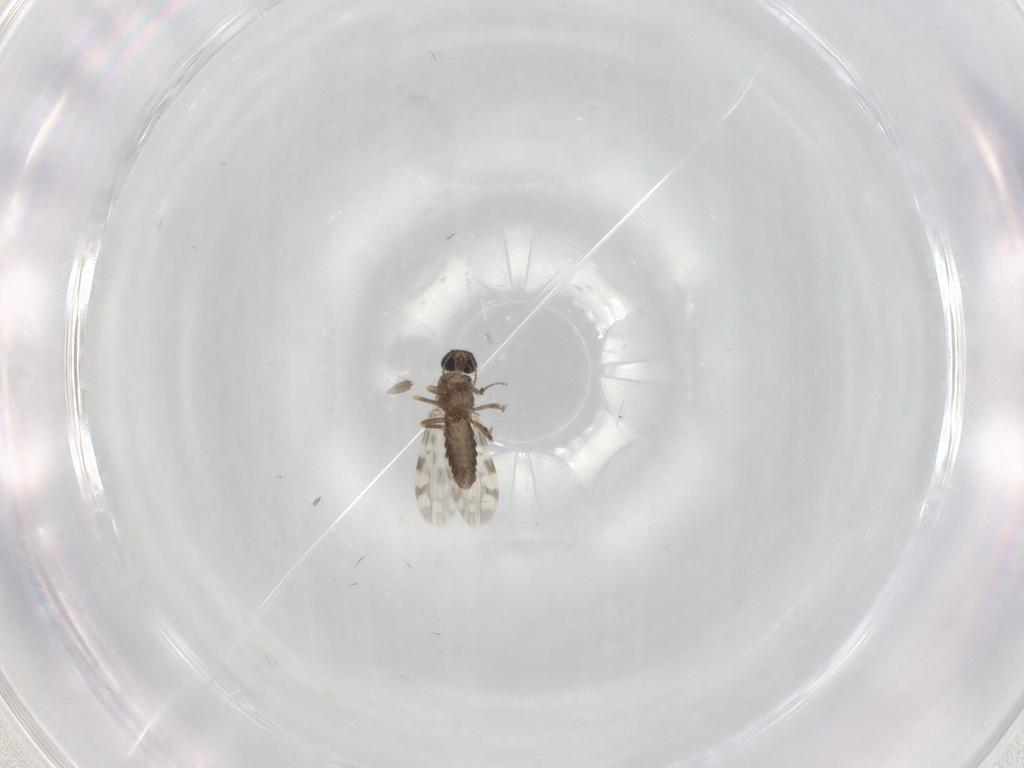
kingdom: Animalia
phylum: Arthropoda
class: Insecta
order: Diptera
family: Ceratopogonidae
